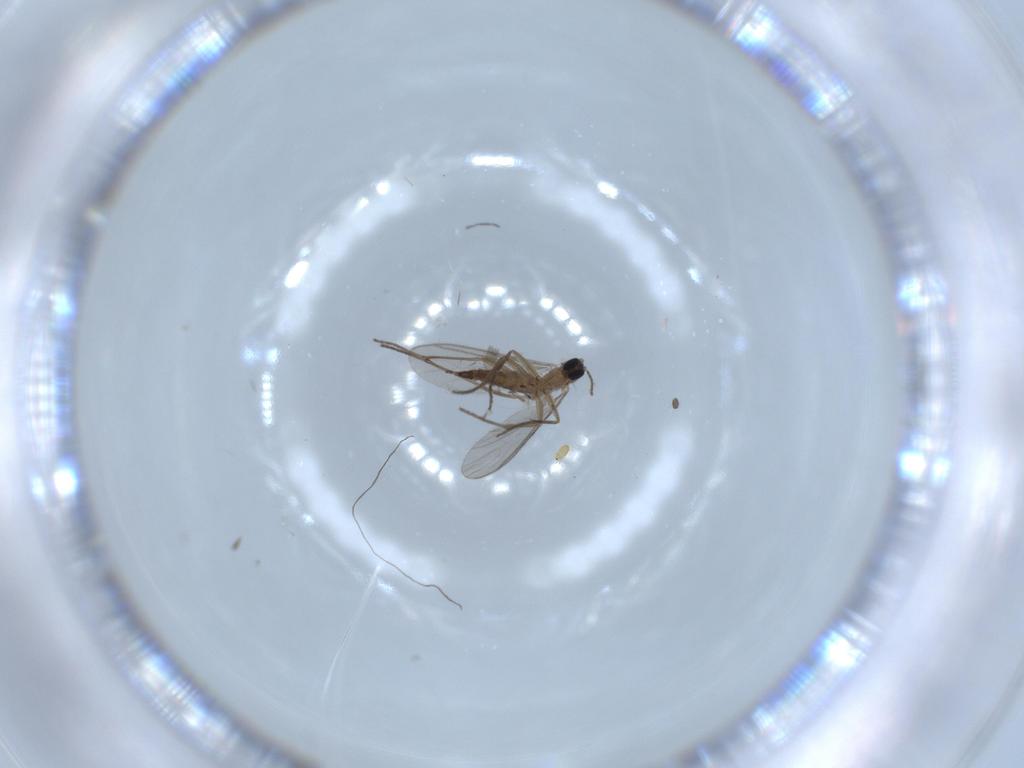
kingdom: Animalia
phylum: Arthropoda
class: Insecta
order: Diptera
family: Sciaridae
